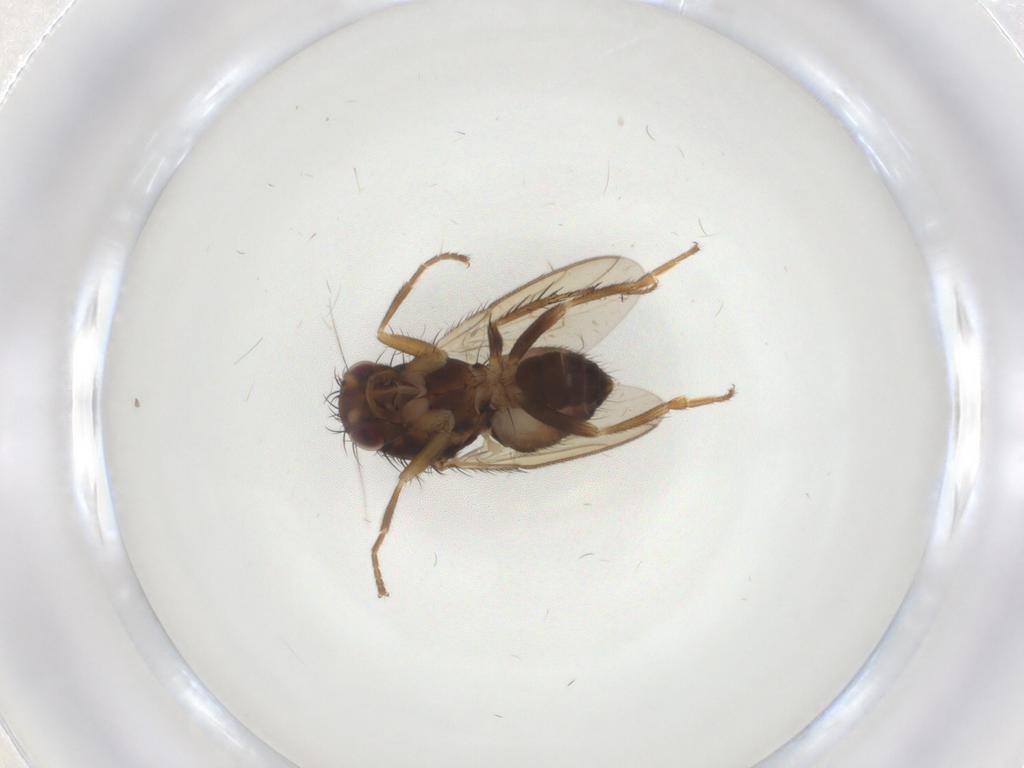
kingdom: Animalia
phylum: Arthropoda
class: Insecta
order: Diptera
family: Sphaeroceridae
